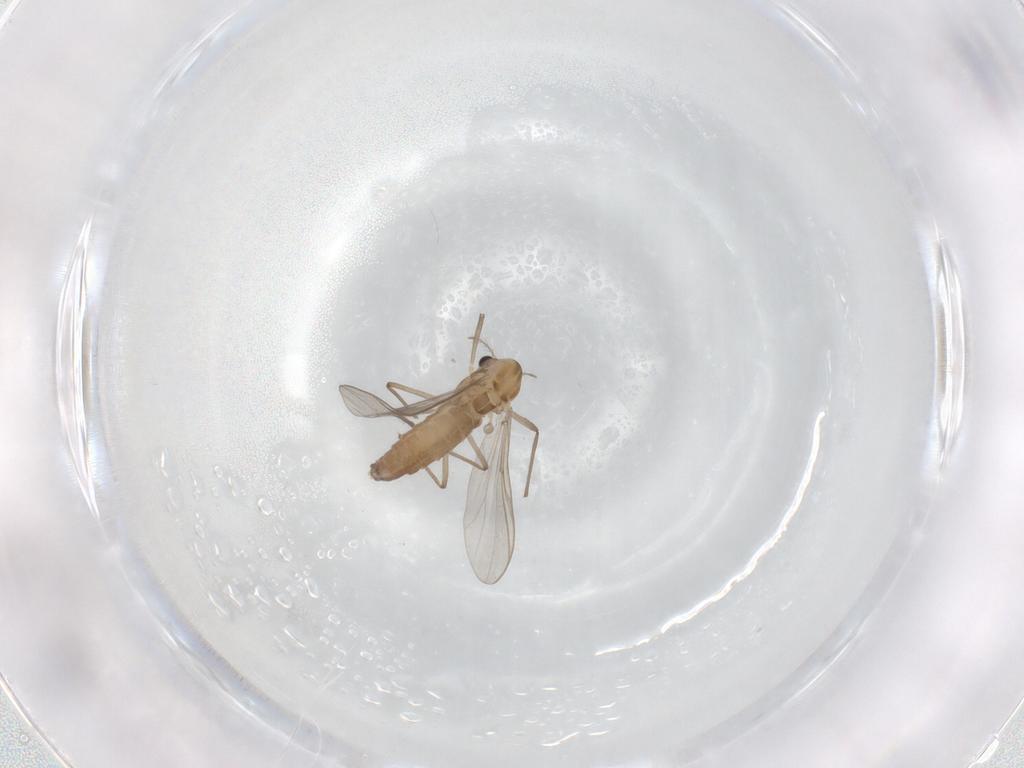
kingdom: Animalia
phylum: Arthropoda
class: Insecta
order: Diptera
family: Chironomidae
